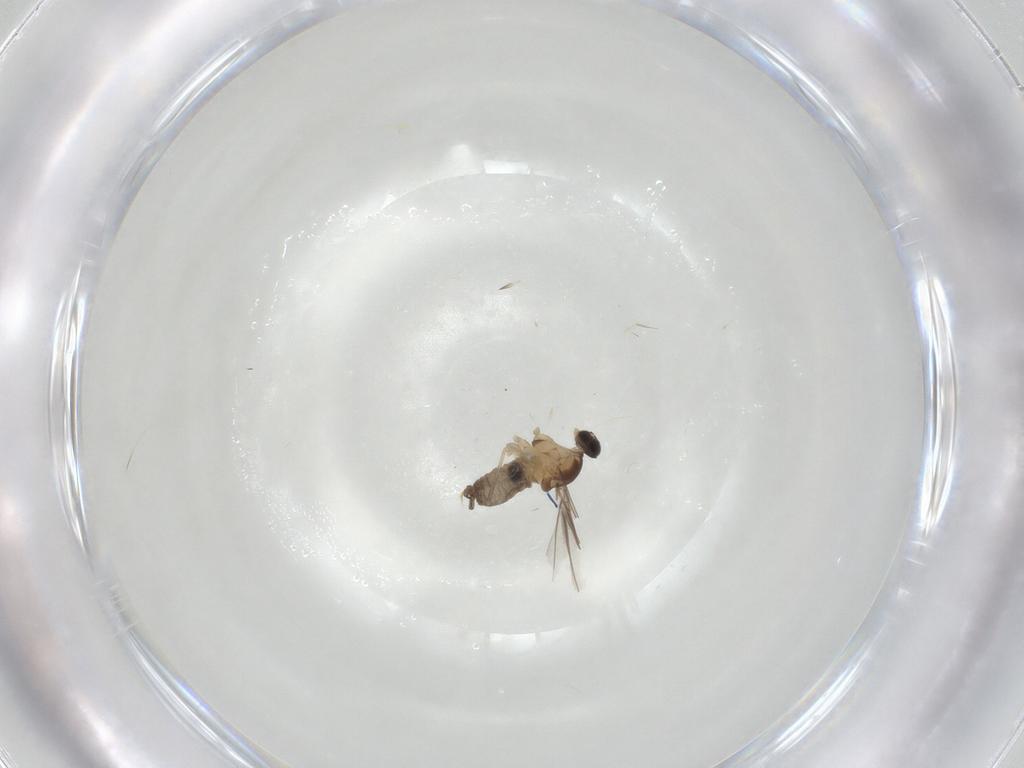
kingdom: Animalia
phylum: Arthropoda
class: Insecta
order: Diptera
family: Cecidomyiidae
